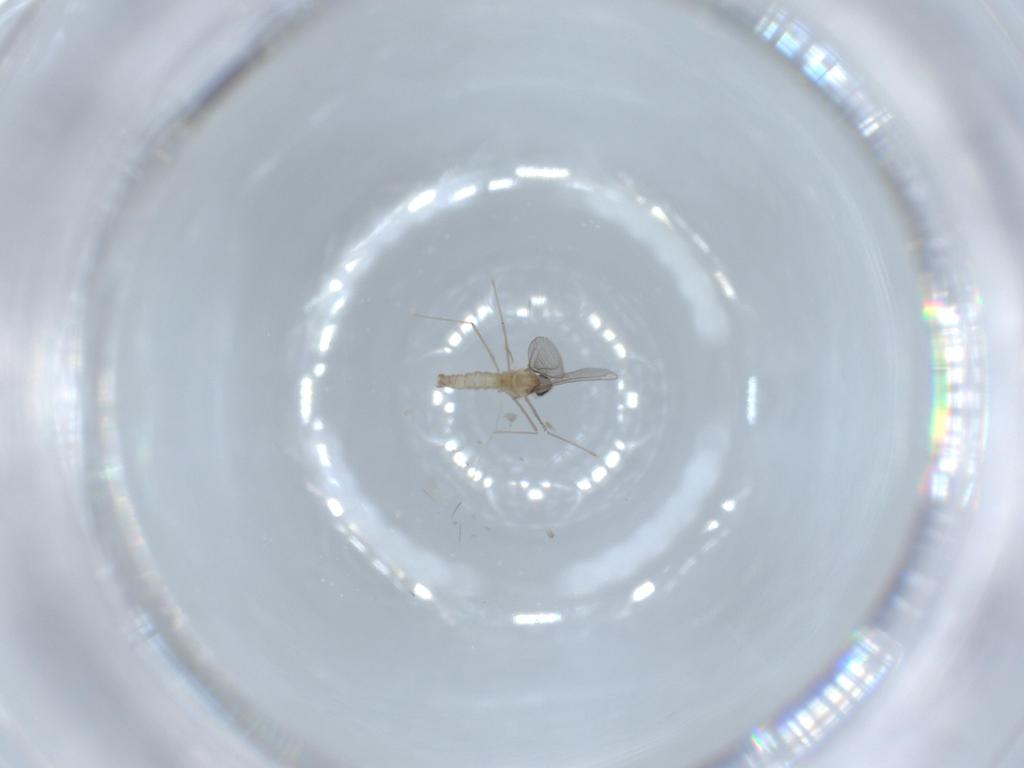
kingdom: Animalia
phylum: Arthropoda
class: Insecta
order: Diptera
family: Cecidomyiidae
